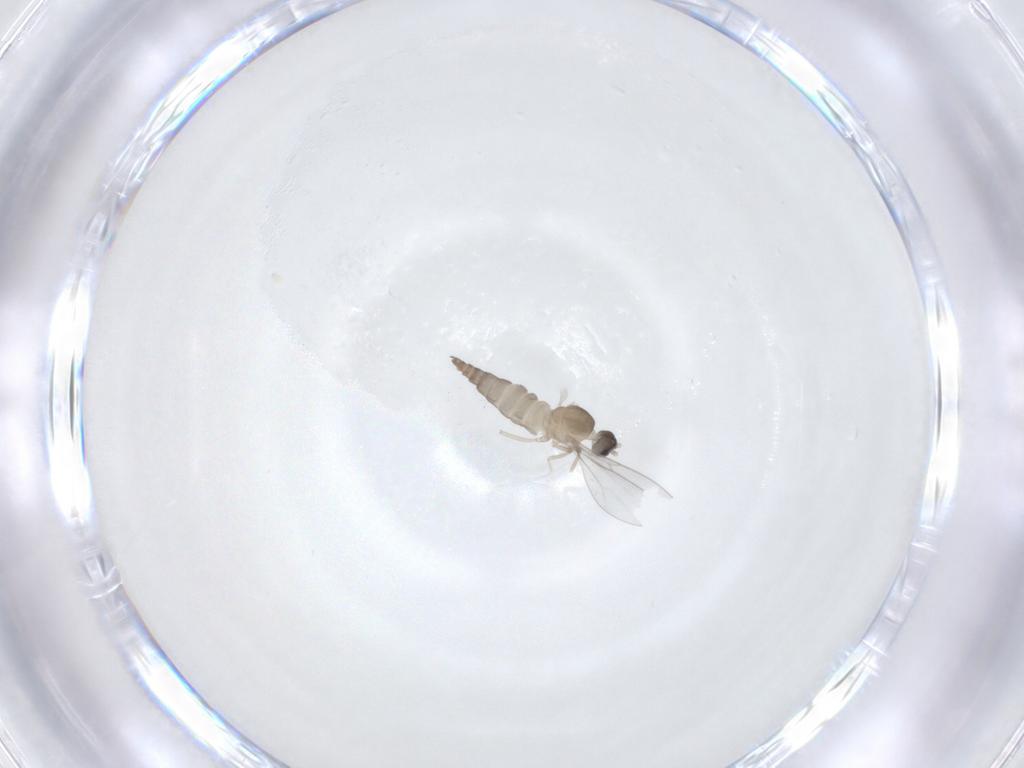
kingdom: Animalia
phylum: Arthropoda
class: Insecta
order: Diptera
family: Cecidomyiidae
